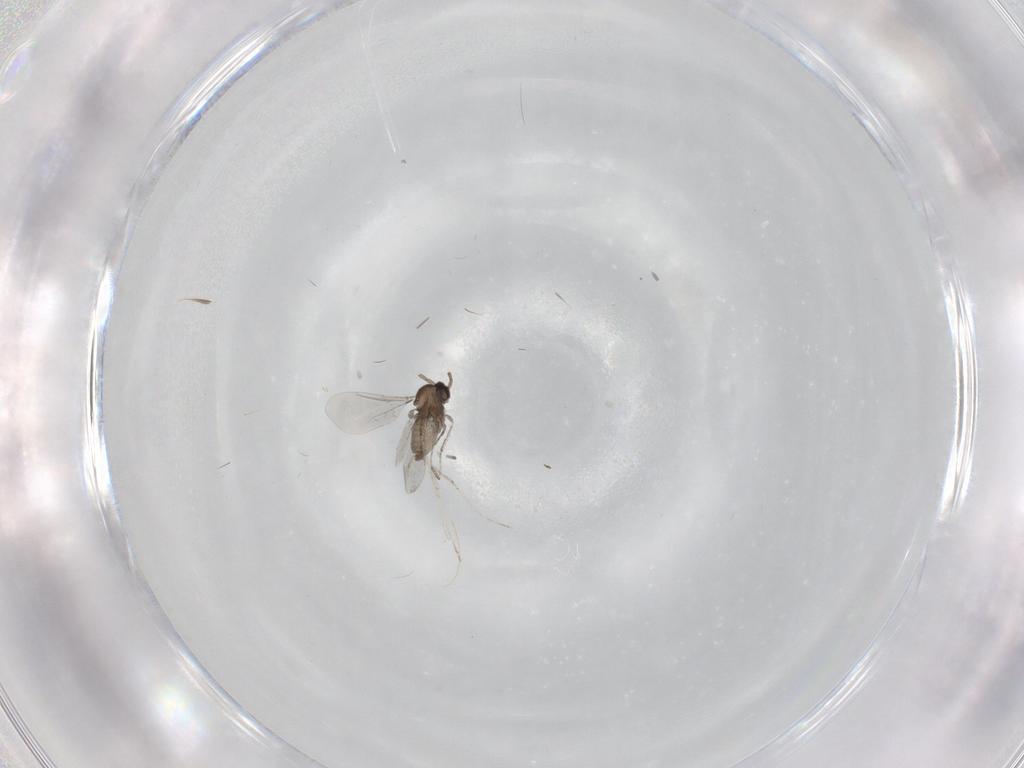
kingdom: Animalia
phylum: Arthropoda
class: Insecta
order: Diptera
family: Cecidomyiidae
